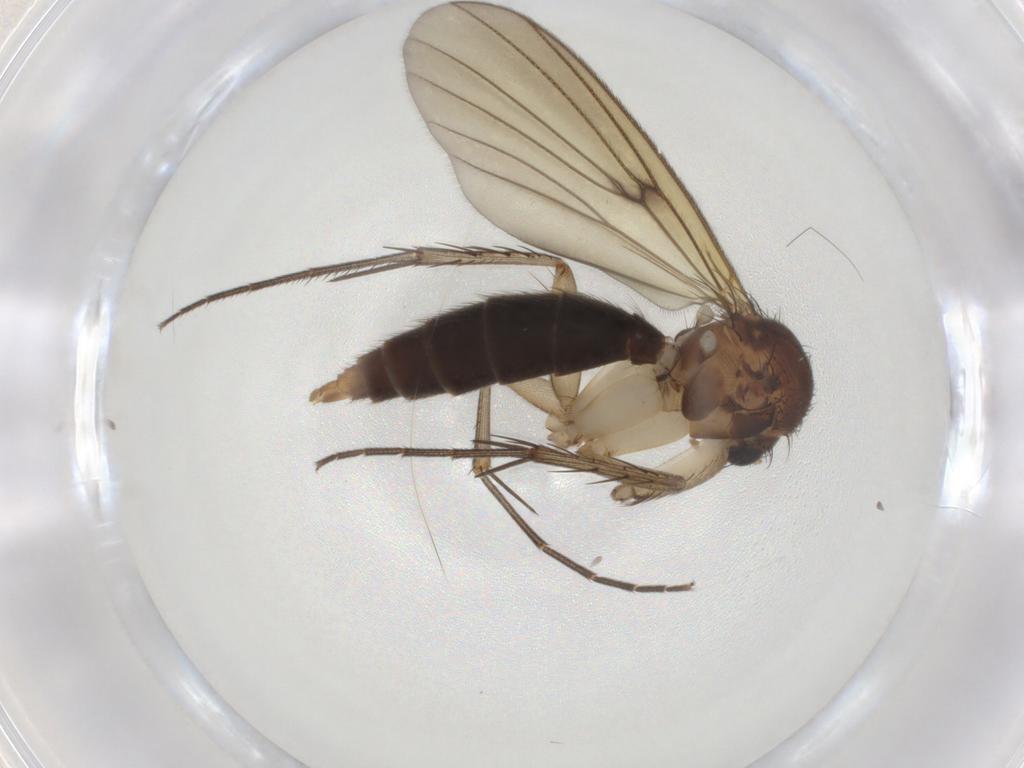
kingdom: Animalia
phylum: Arthropoda
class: Insecta
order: Diptera
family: Mycetophilidae
